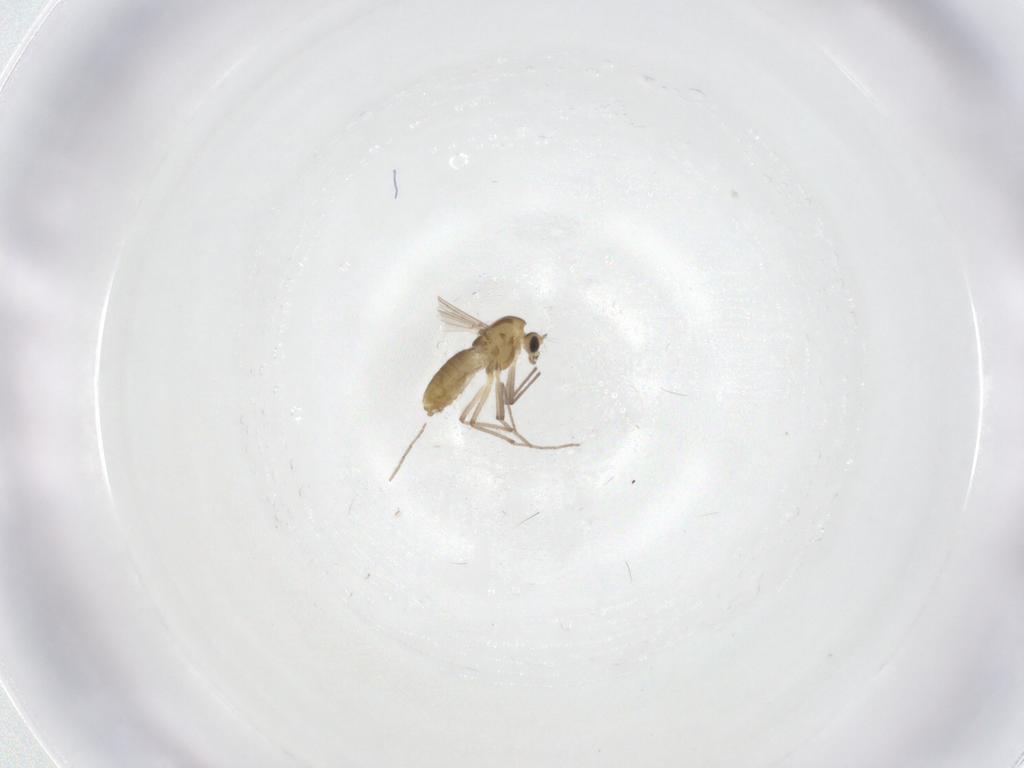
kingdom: Animalia
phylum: Arthropoda
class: Insecta
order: Diptera
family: Chironomidae
